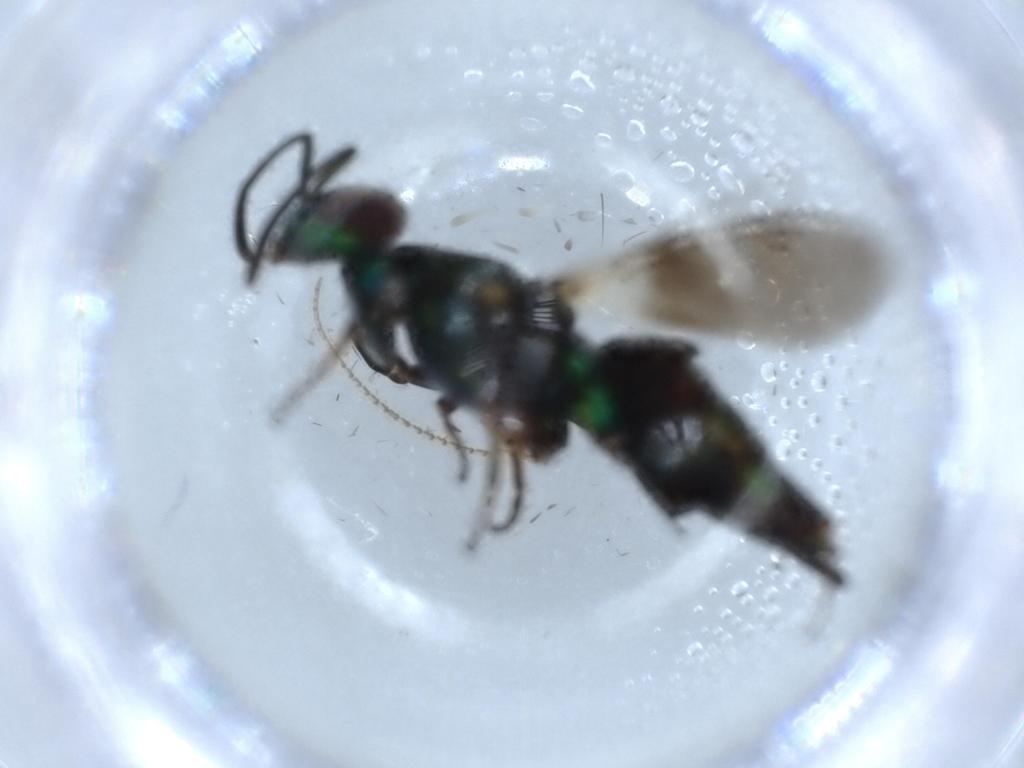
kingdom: Animalia
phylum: Arthropoda
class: Insecta
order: Hymenoptera
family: Eupelmidae
